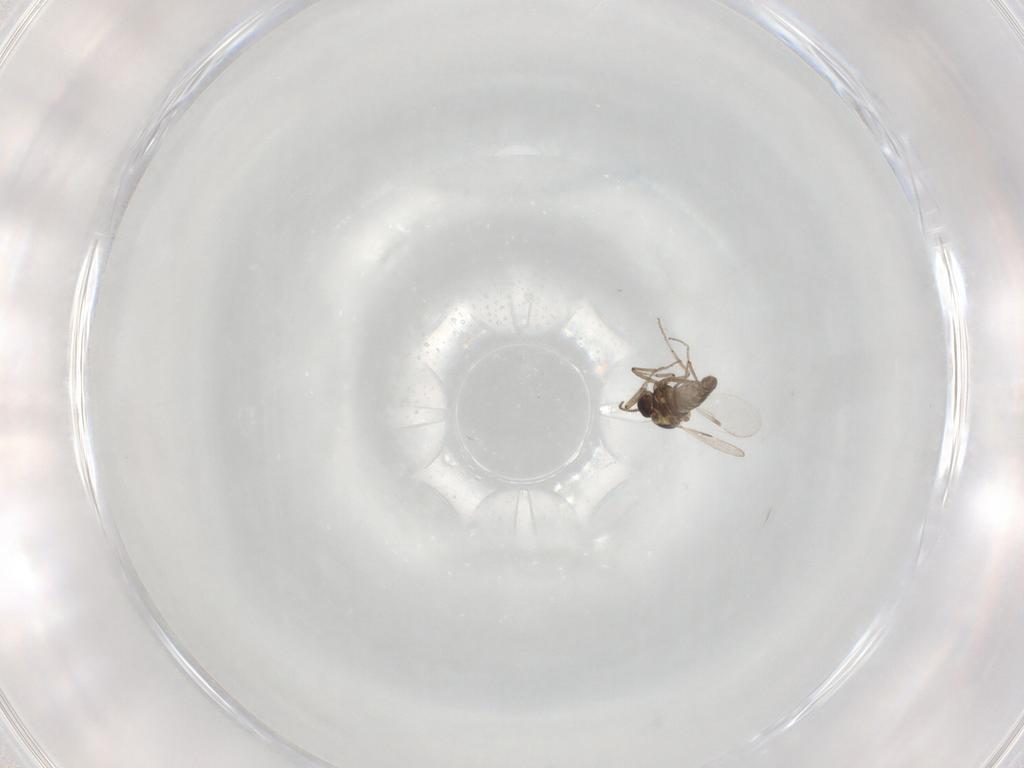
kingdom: Animalia
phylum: Arthropoda
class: Insecta
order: Diptera
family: Ceratopogonidae
